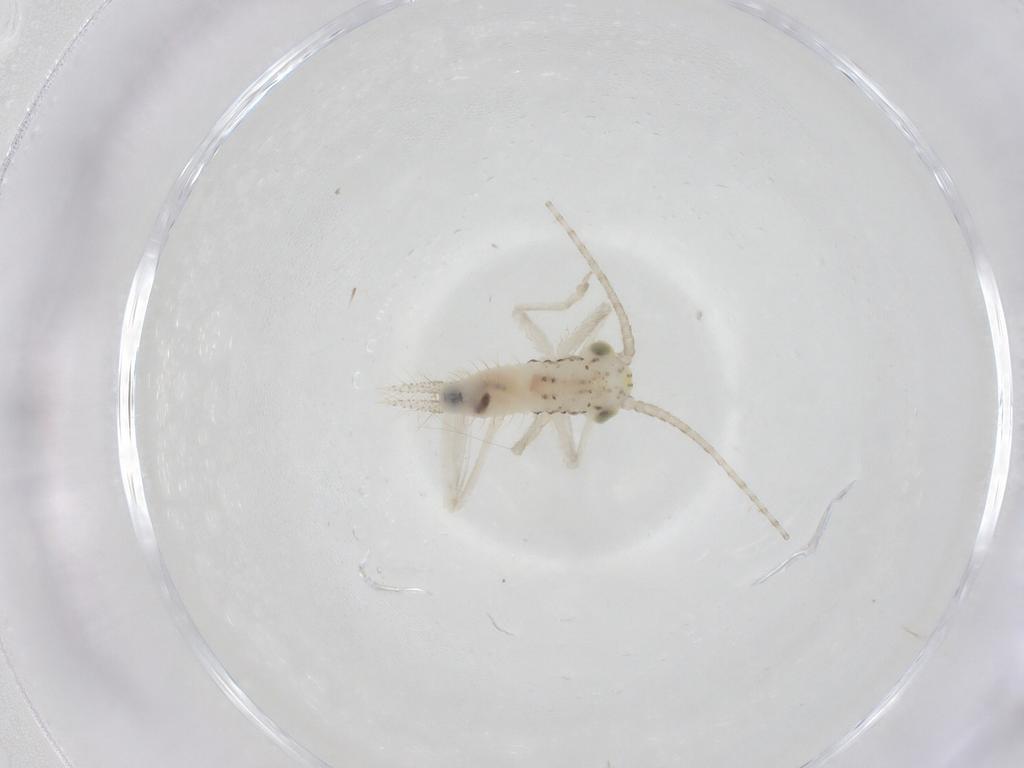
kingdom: Animalia
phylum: Arthropoda
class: Insecta
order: Orthoptera
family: Trigonidiidae
